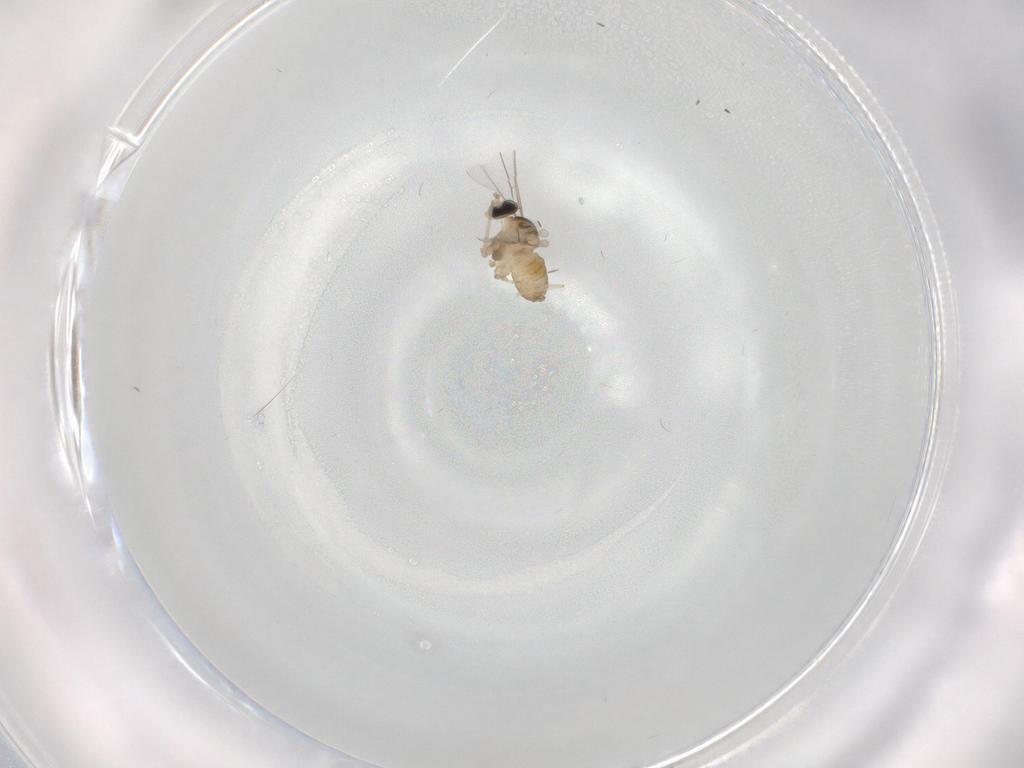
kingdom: Animalia
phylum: Arthropoda
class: Insecta
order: Diptera
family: Cecidomyiidae
